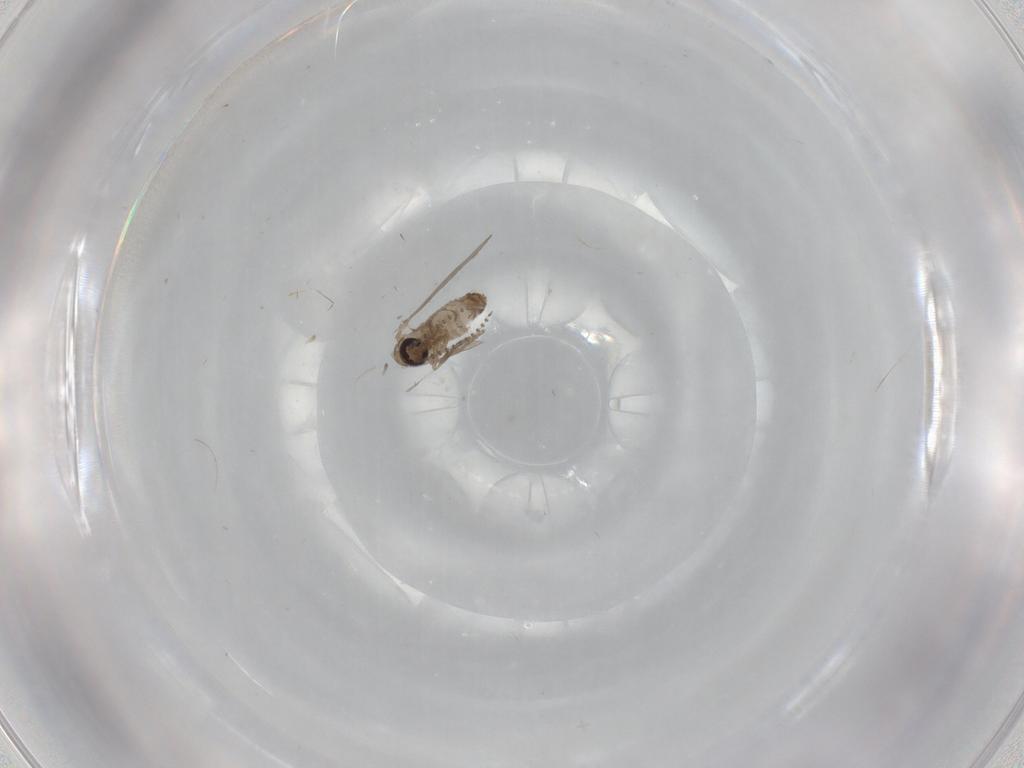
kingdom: Animalia
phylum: Arthropoda
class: Insecta
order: Diptera
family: Psychodidae
